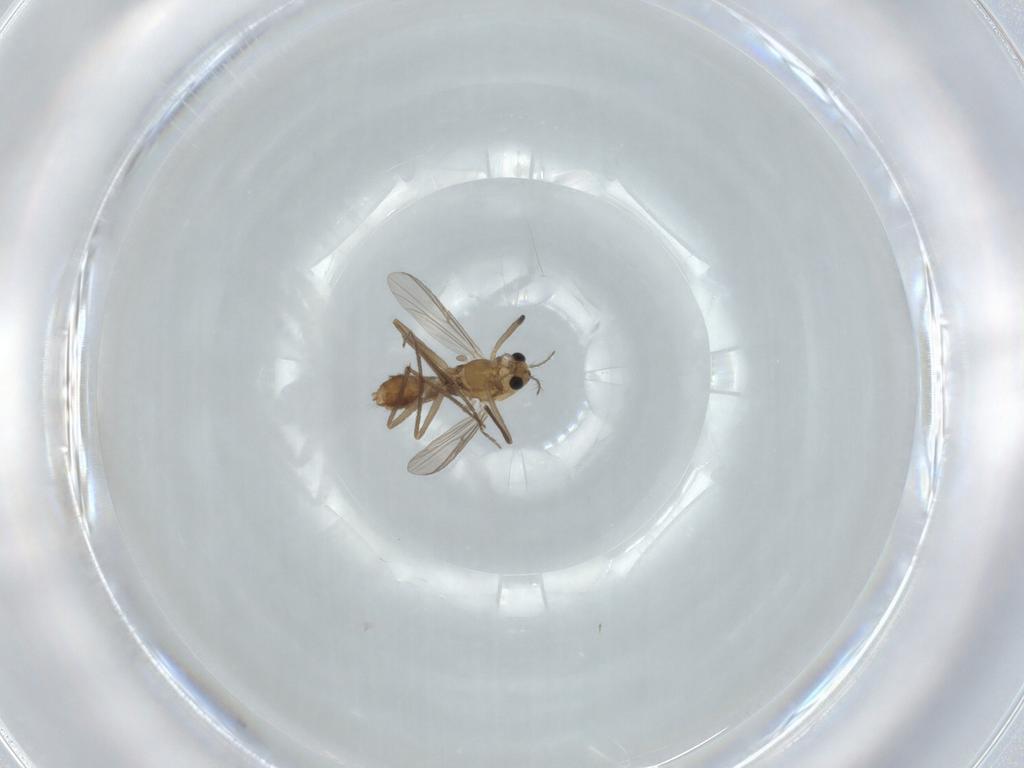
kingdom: Animalia
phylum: Arthropoda
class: Insecta
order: Diptera
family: Chironomidae
